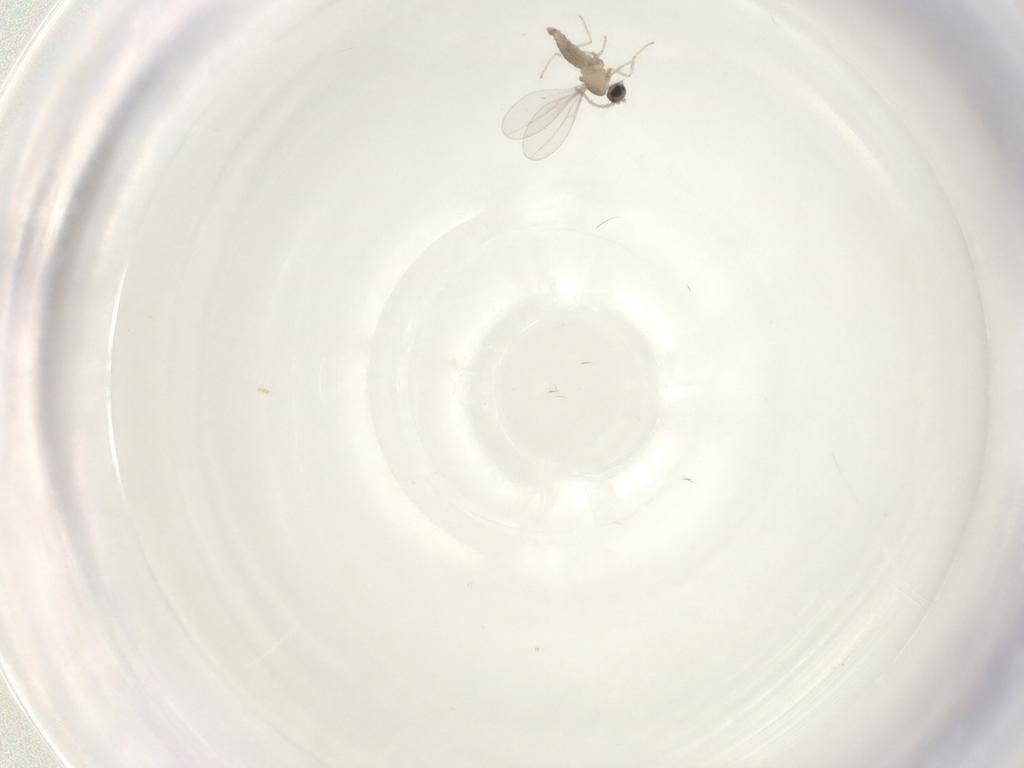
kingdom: Animalia
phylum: Arthropoda
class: Insecta
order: Diptera
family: Cecidomyiidae
